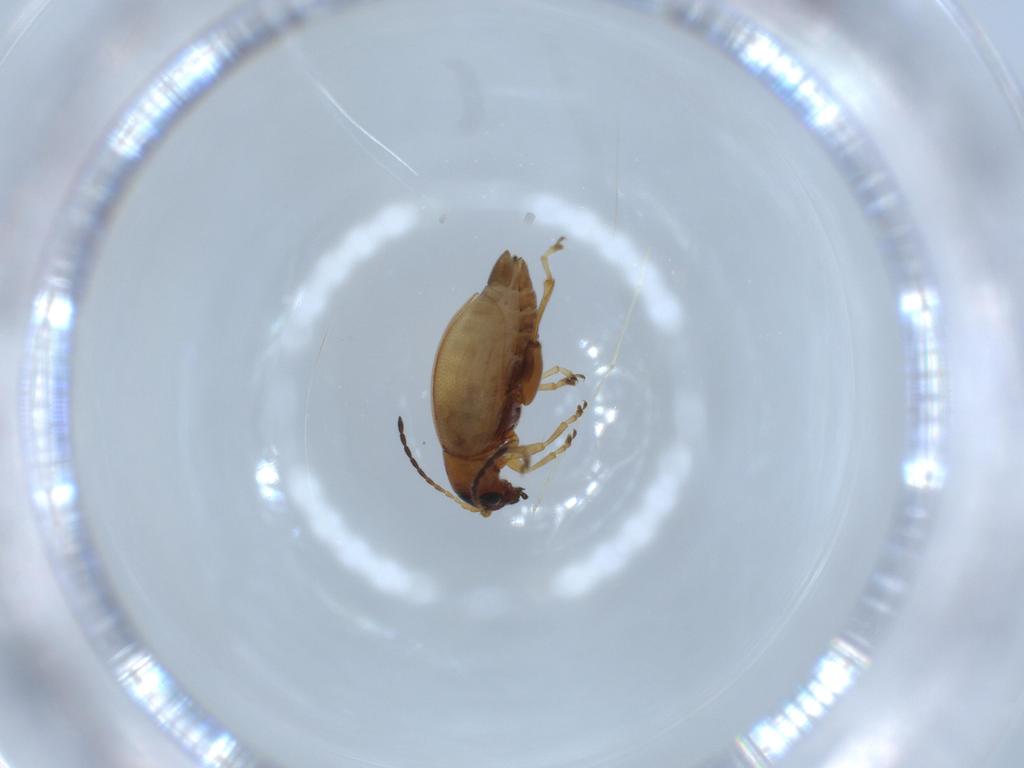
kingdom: Animalia
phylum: Arthropoda
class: Insecta
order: Coleoptera
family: Chrysomelidae
